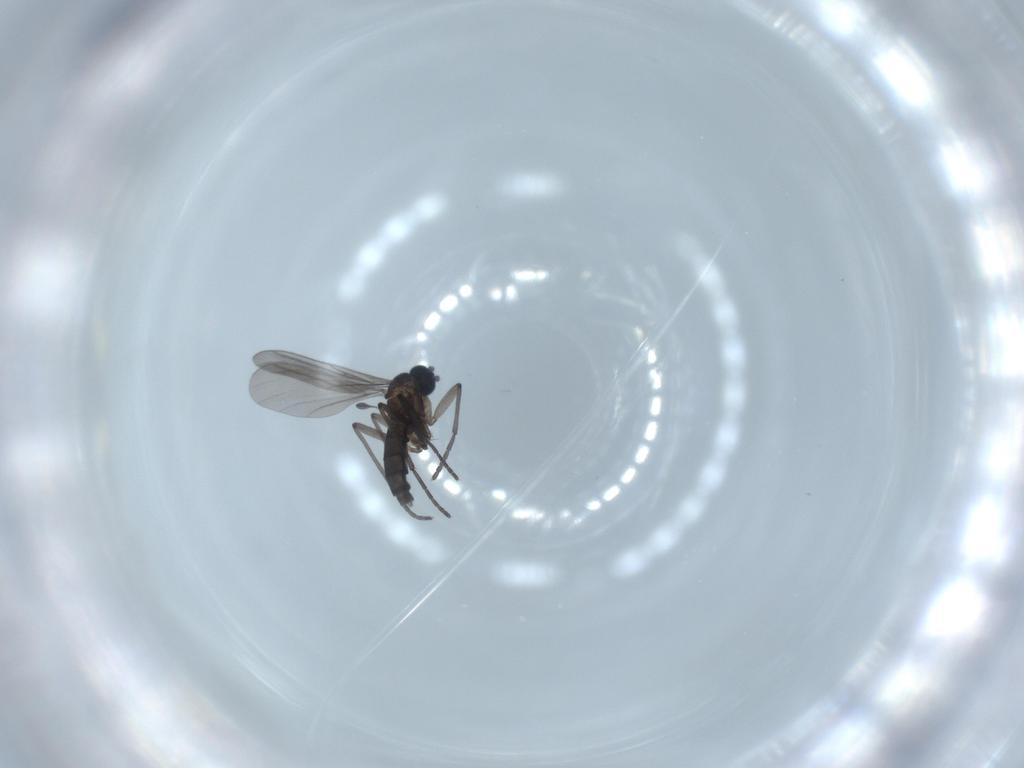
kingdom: Animalia
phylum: Arthropoda
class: Insecta
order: Diptera
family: Sciaridae
